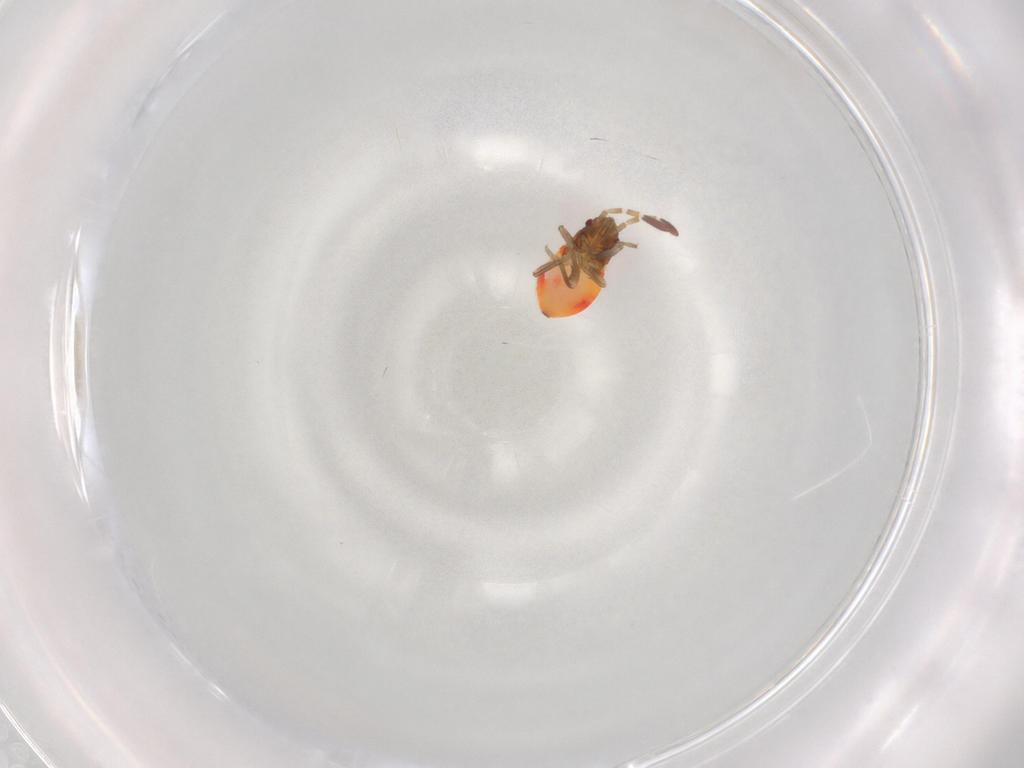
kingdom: Animalia
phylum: Arthropoda
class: Insecta
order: Hemiptera
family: Rhyparochromidae
